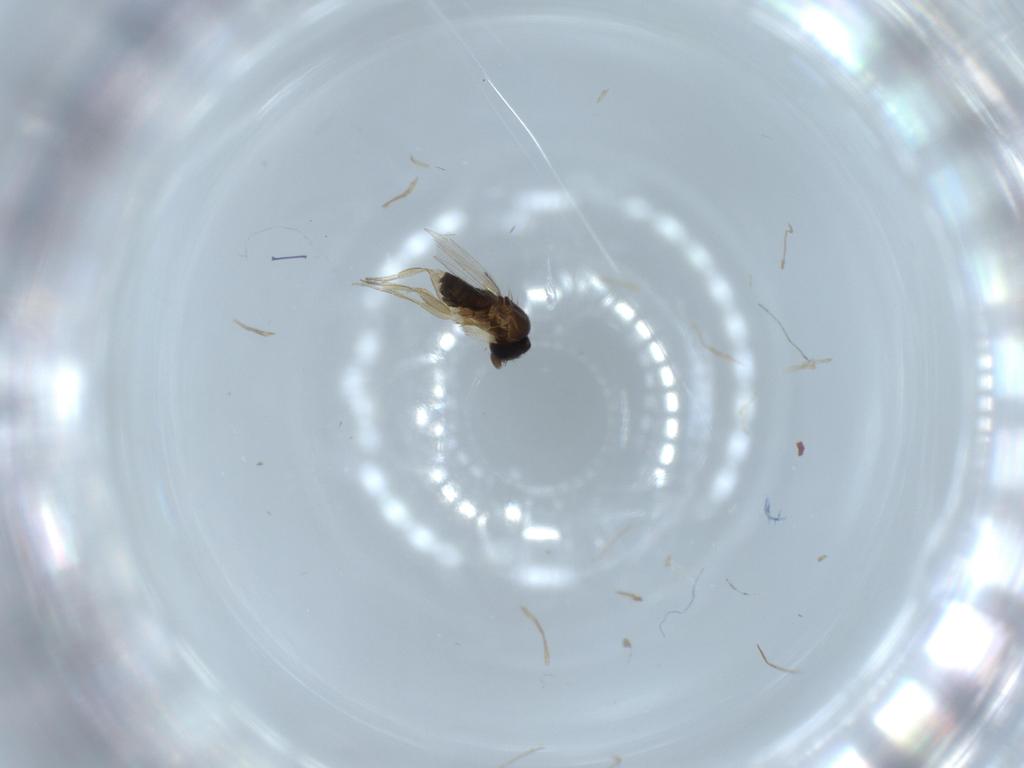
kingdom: Animalia
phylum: Arthropoda
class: Insecta
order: Diptera
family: Phoridae
